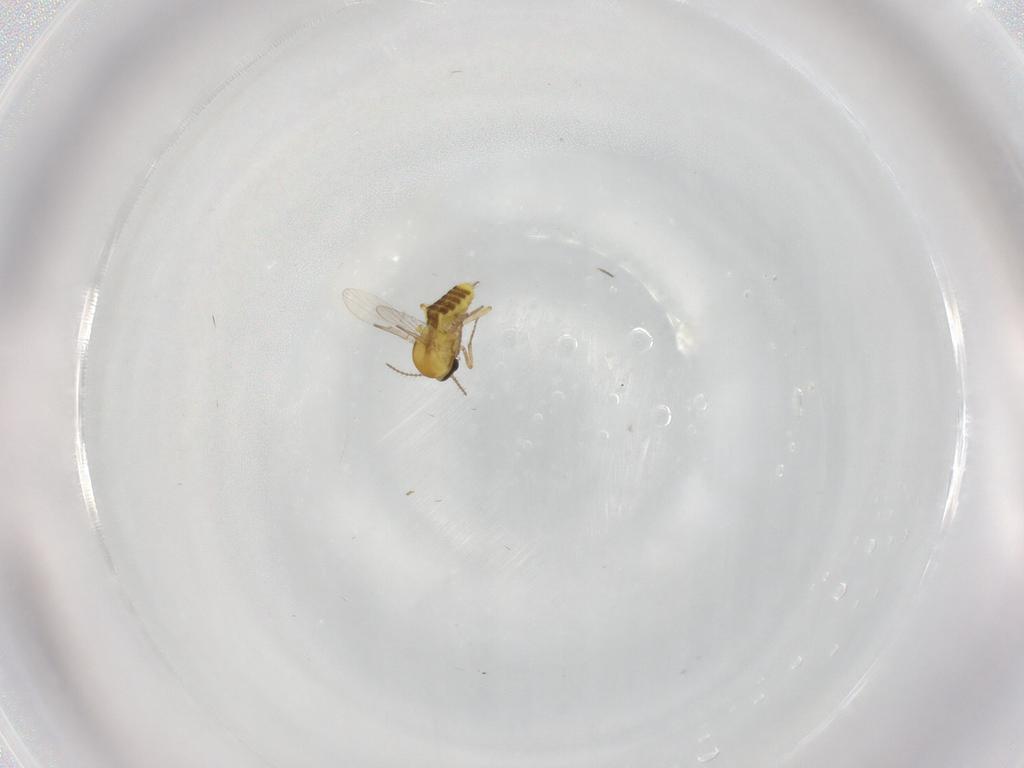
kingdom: Animalia
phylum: Arthropoda
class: Insecta
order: Diptera
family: Ceratopogonidae
